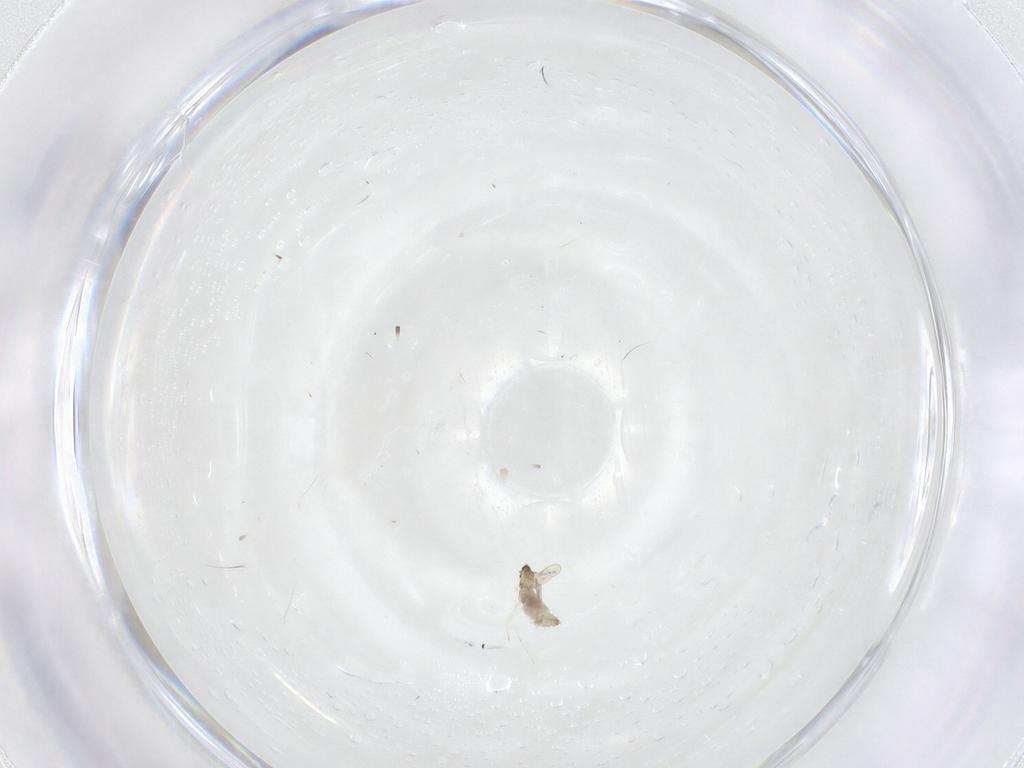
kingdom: Animalia
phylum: Arthropoda
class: Insecta
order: Diptera
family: Cecidomyiidae
